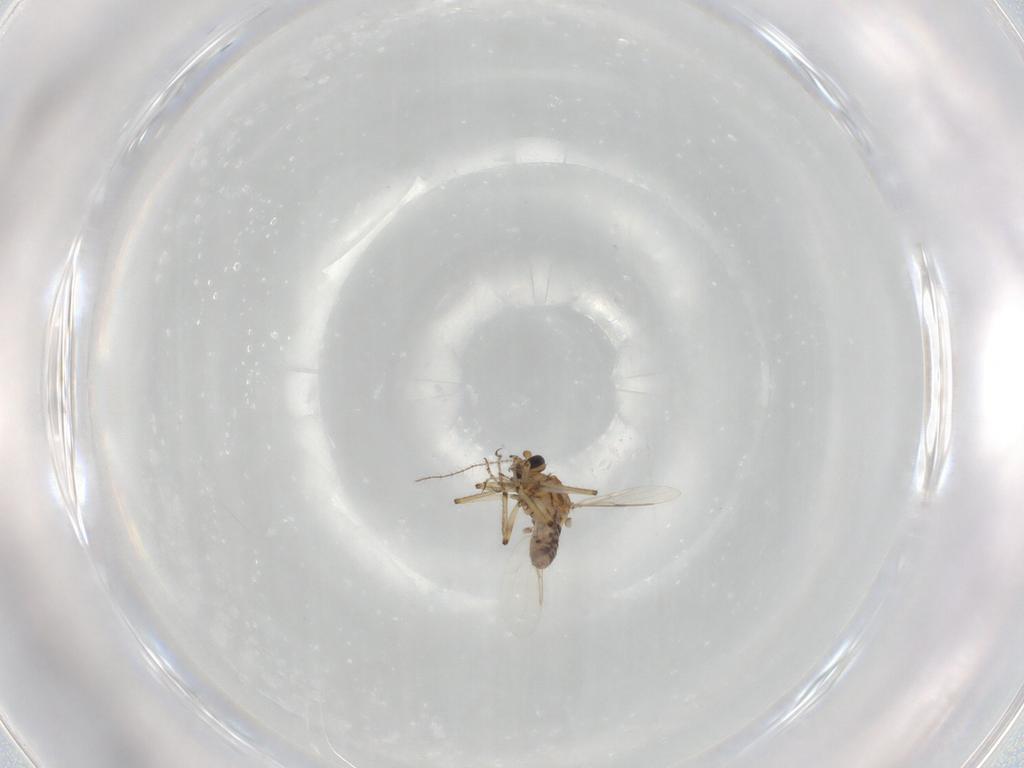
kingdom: Animalia
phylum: Arthropoda
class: Insecta
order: Diptera
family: Ceratopogonidae
